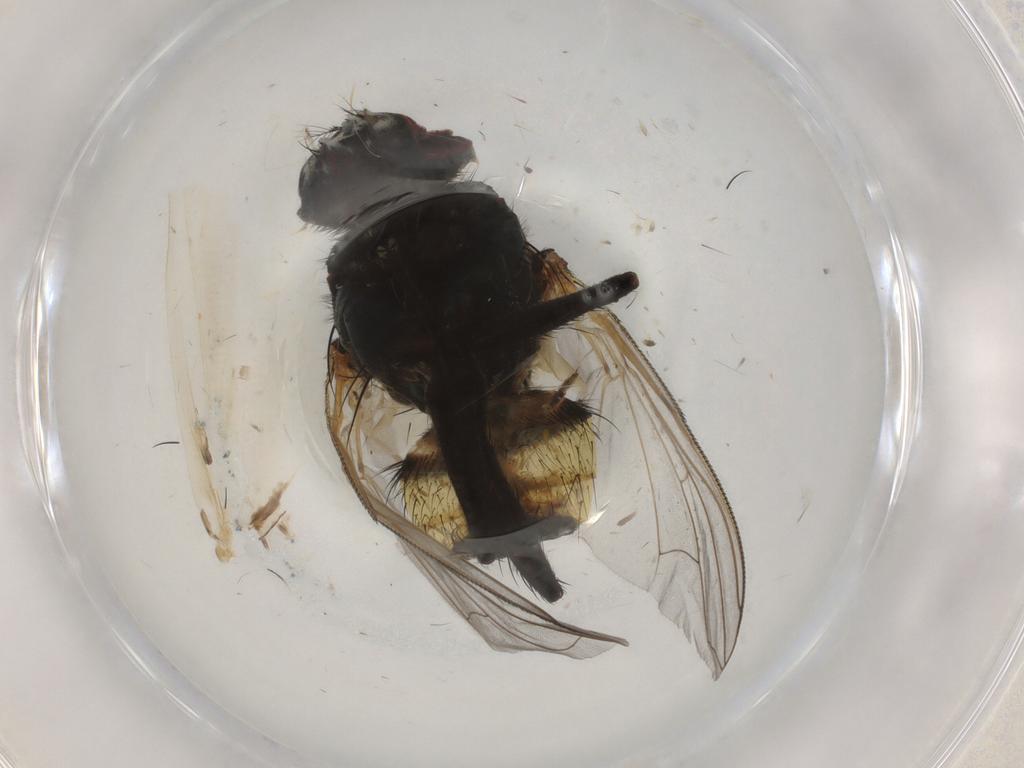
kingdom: Animalia
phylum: Arthropoda
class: Insecta
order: Diptera
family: Muscidae
